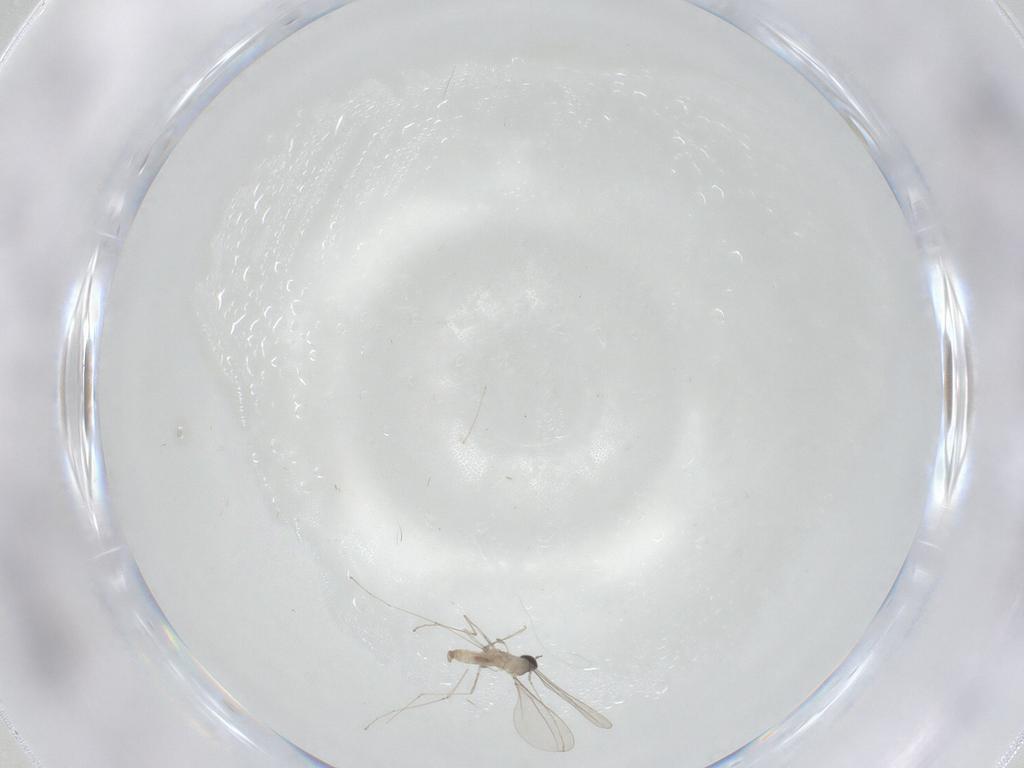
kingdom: Animalia
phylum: Arthropoda
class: Insecta
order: Diptera
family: Cecidomyiidae
